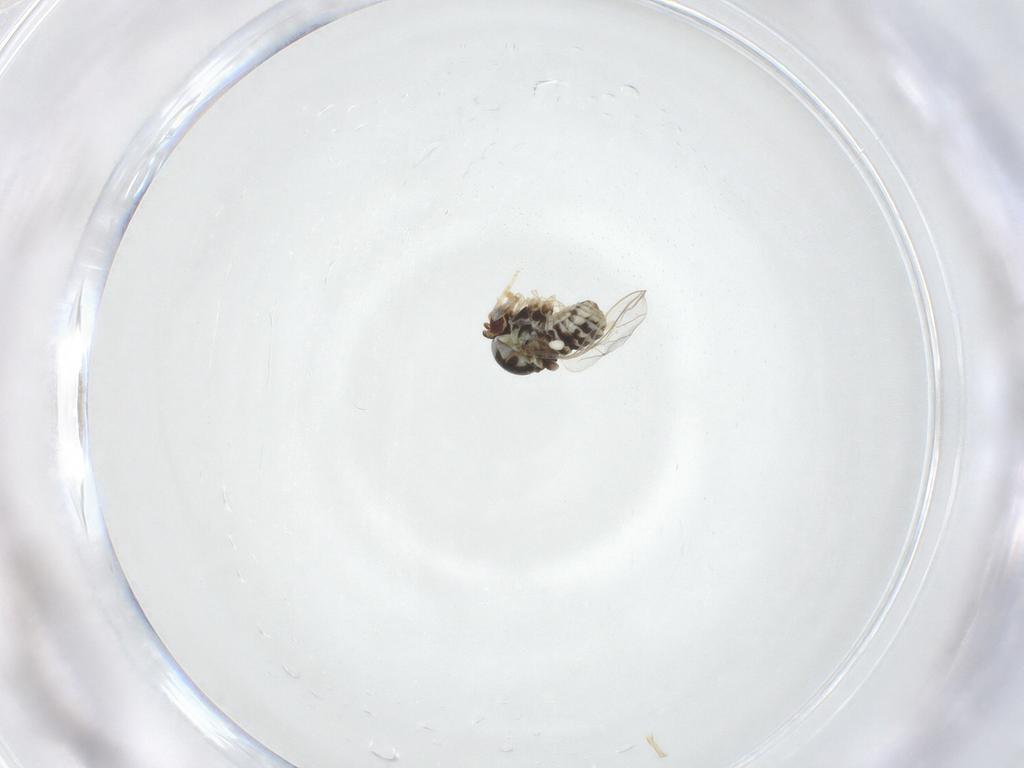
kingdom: Animalia
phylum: Arthropoda
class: Insecta
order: Diptera
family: Bombyliidae
